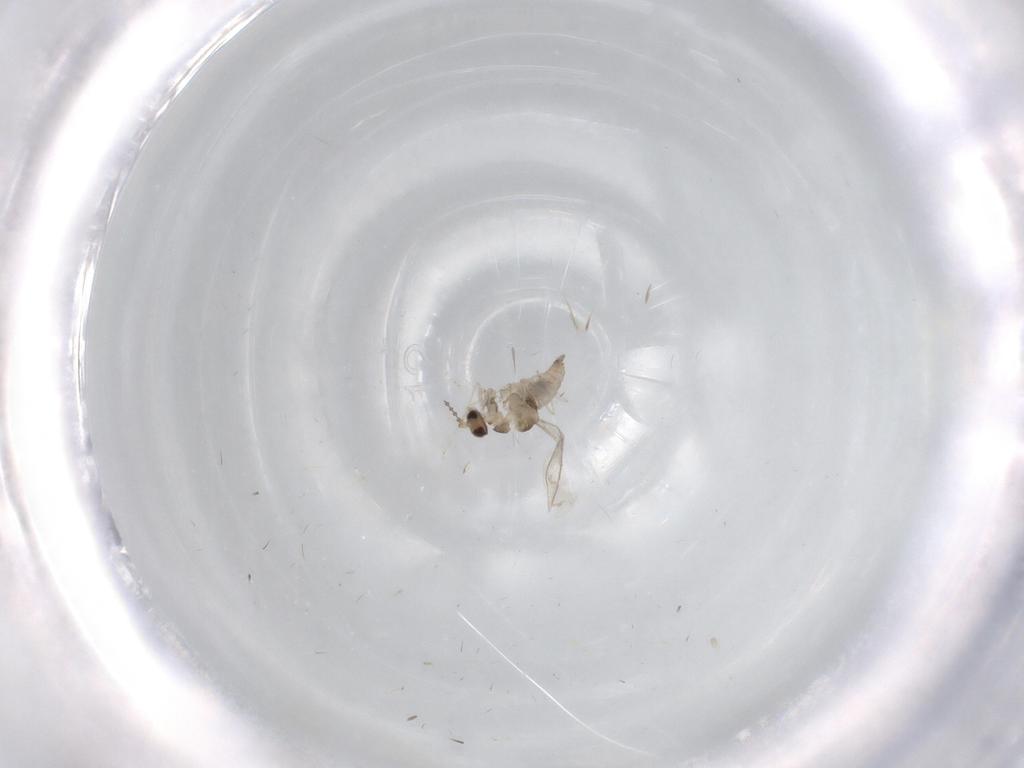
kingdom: Animalia
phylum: Arthropoda
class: Insecta
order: Diptera
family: Cecidomyiidae
